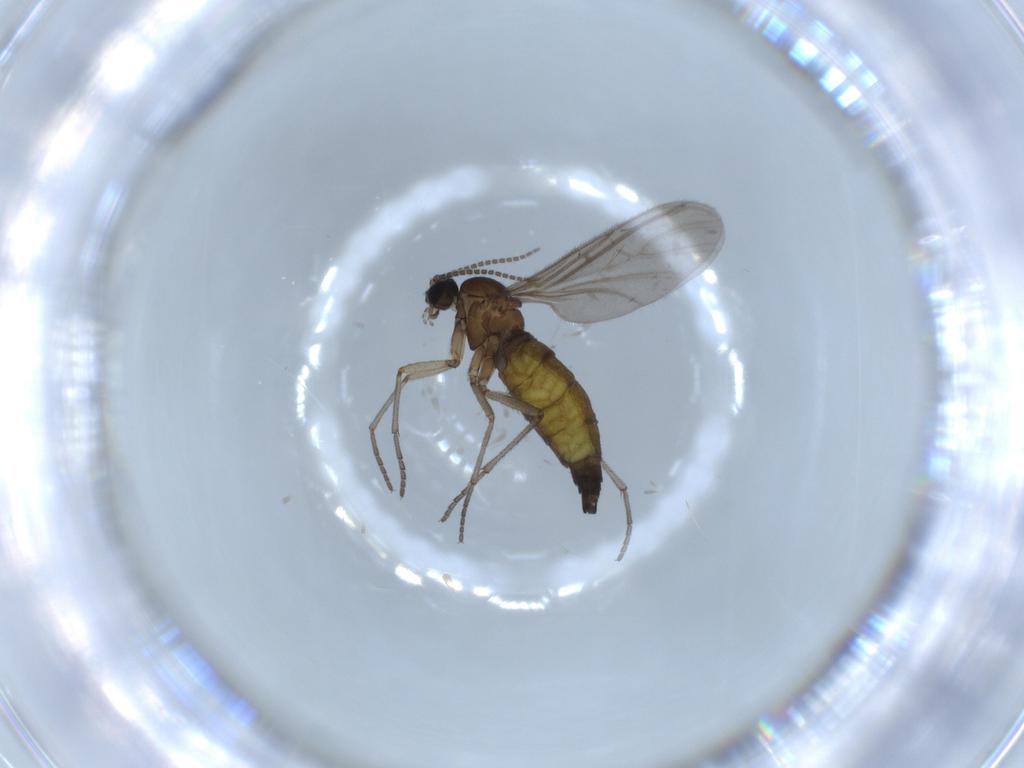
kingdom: Animalia
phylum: Arthropoda
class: Insecta
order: Diptera
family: Sciaridae
